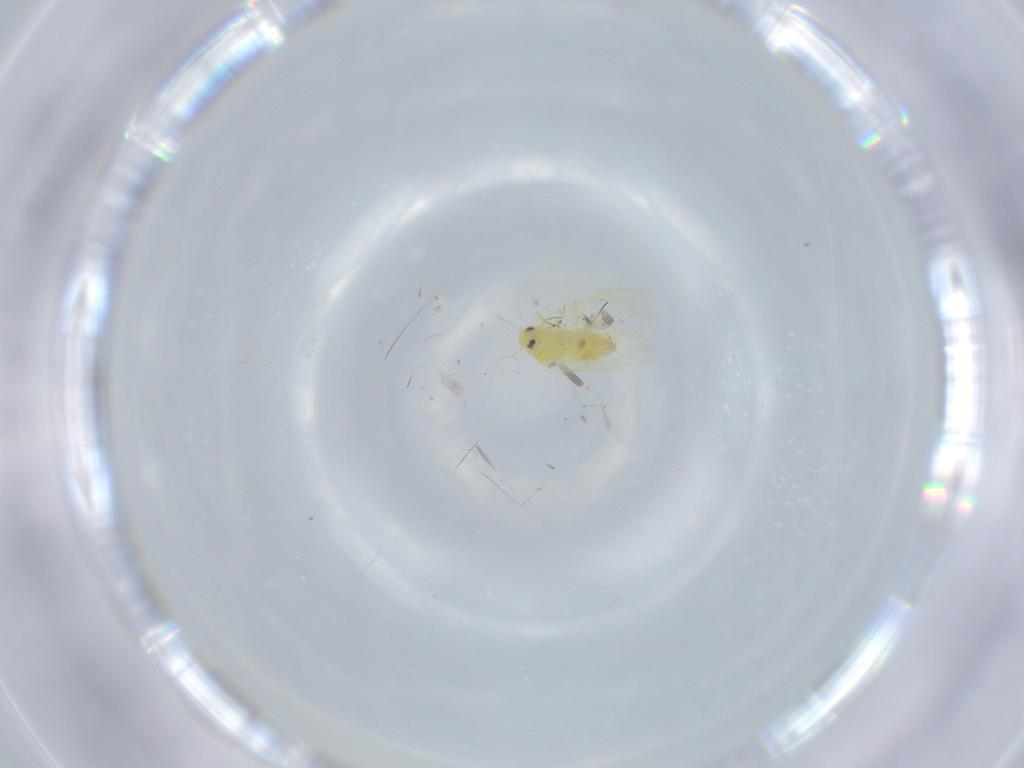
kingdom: Animalia
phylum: Arthropoda
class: Insecta
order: Hemiptera
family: Aleyrodidae
